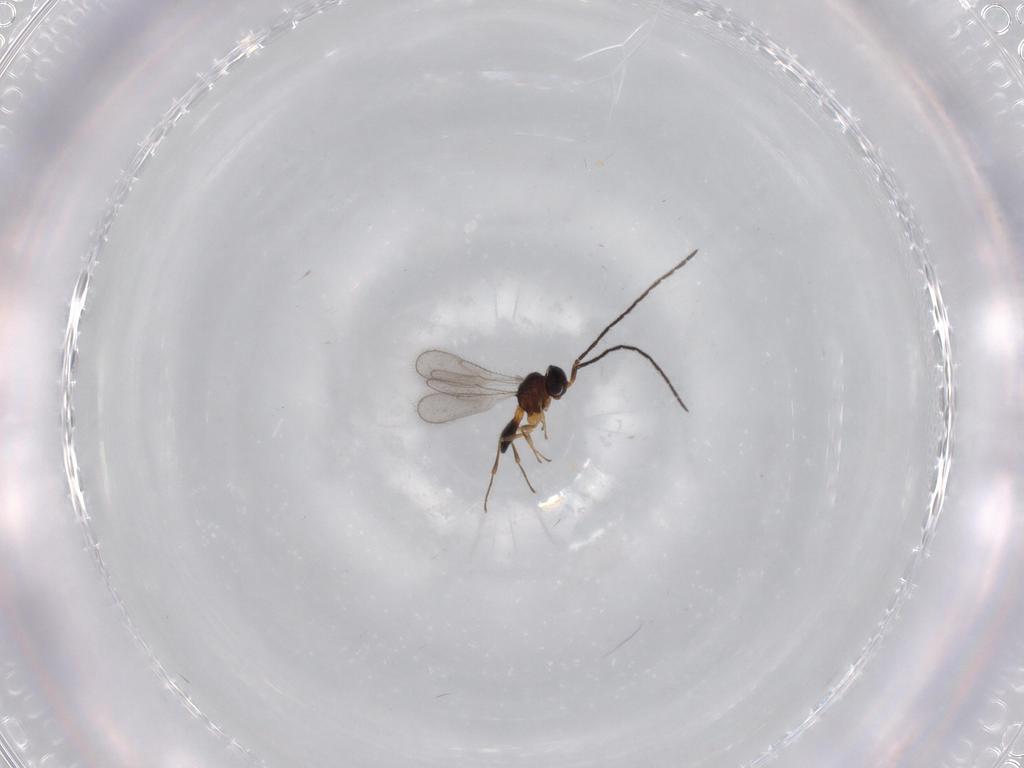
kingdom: Animalia
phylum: Arthropoda
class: Insecta
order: Hymenoptera
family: Scelionidae
